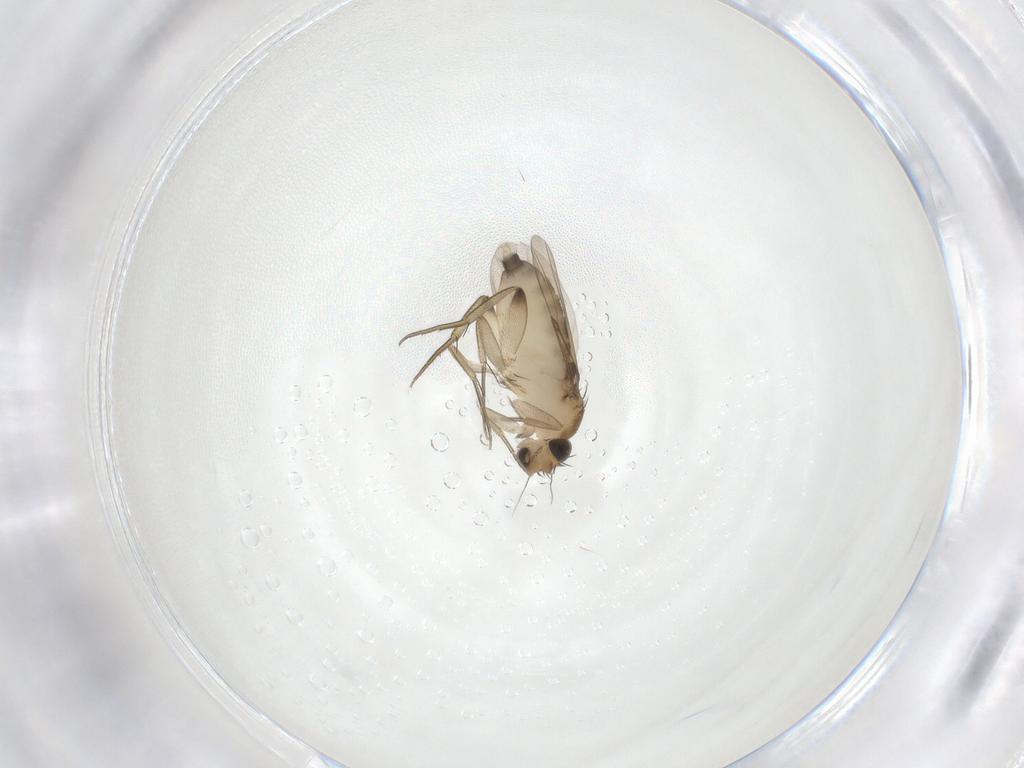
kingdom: Animalia
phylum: Arthropoda
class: Insecta
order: Diptera
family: Phoridae
